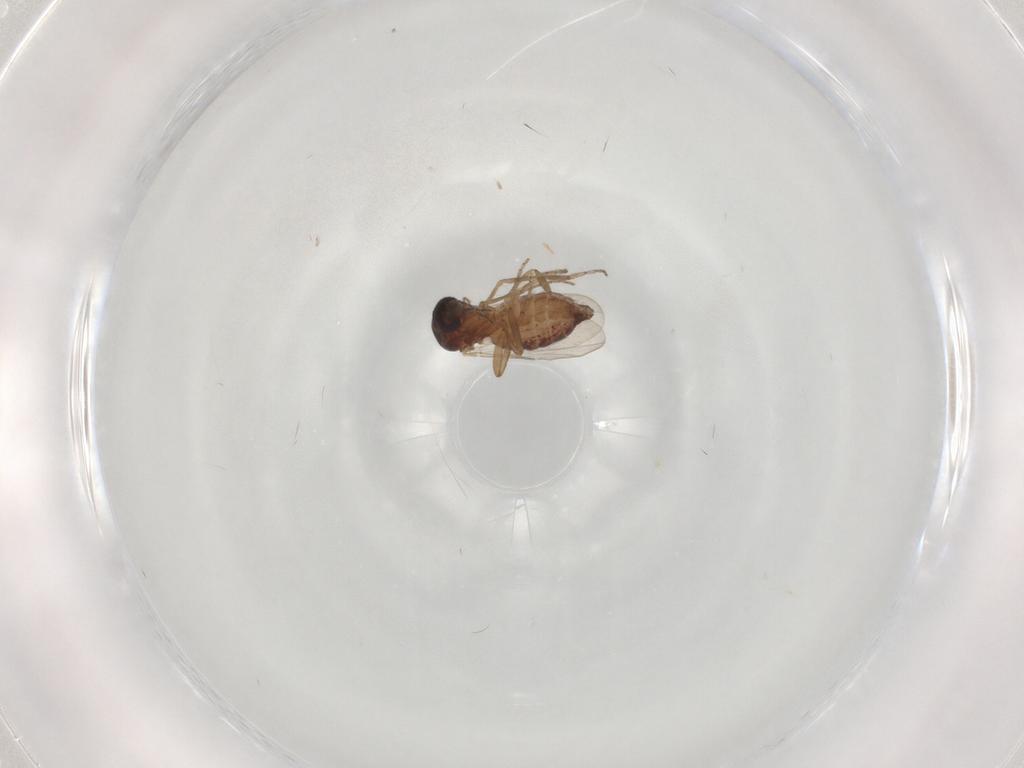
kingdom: Animalia
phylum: Arthropoda
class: Insecta
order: Diptera
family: Ceratopogonidae
